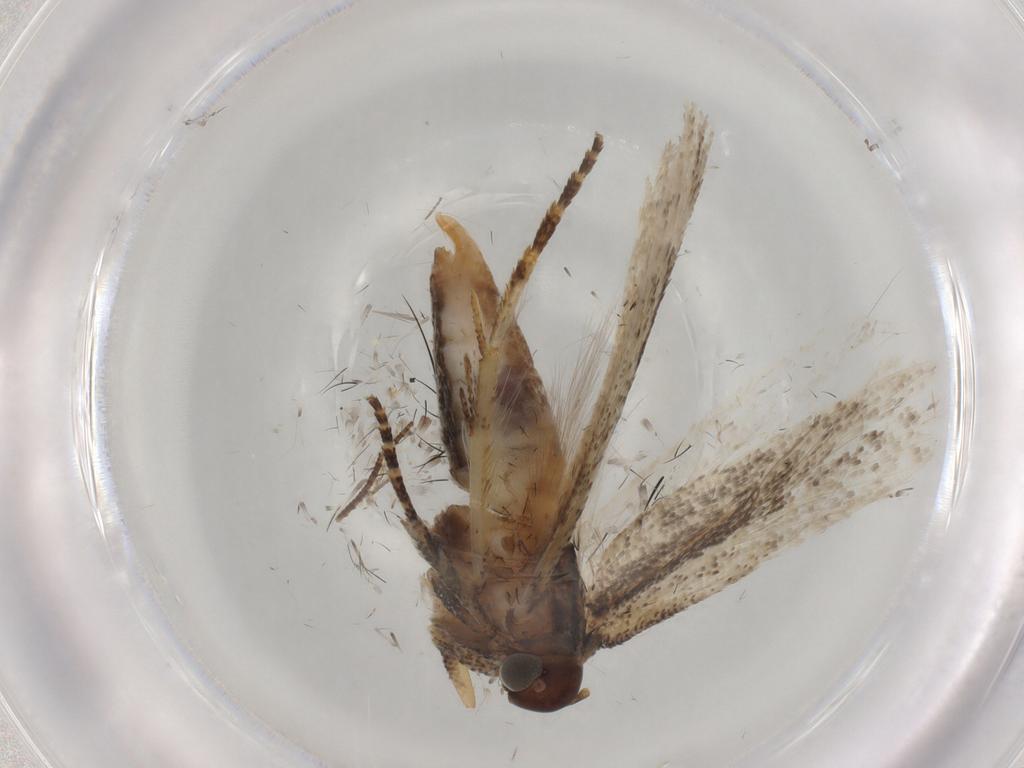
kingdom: Animalia
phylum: Arthropoda
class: Insecta
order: Lepidoptera
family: Gelechiidae
